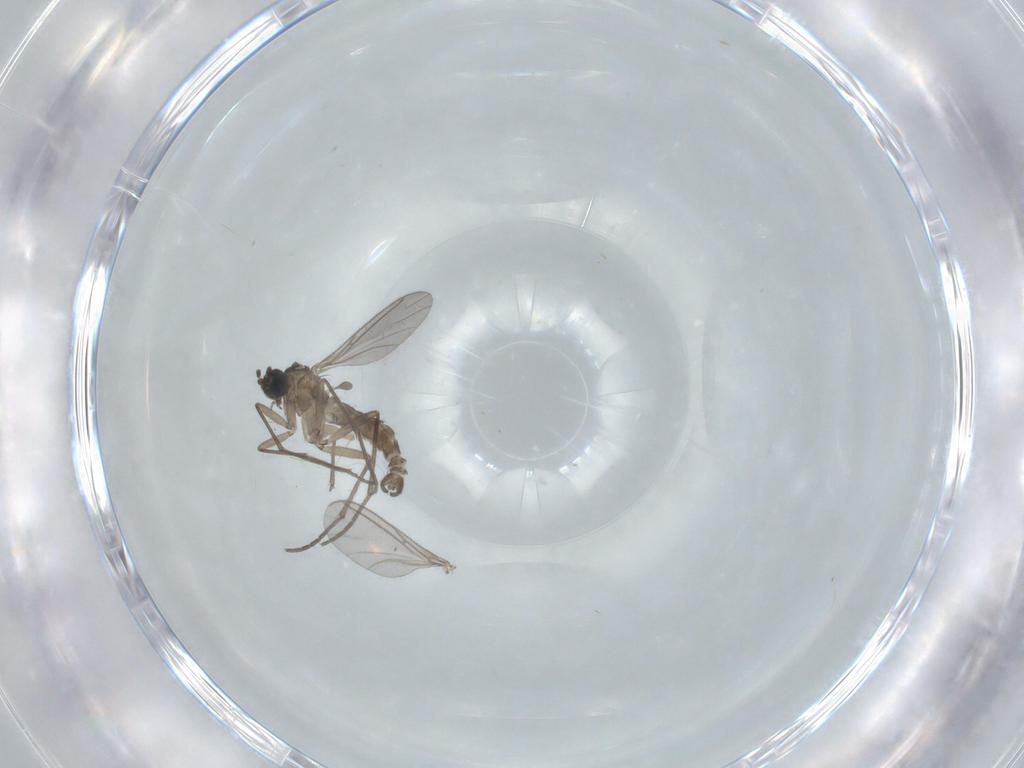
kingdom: Animalia
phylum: Arthropoda
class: Insecta
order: Diptera
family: Sciaridae
